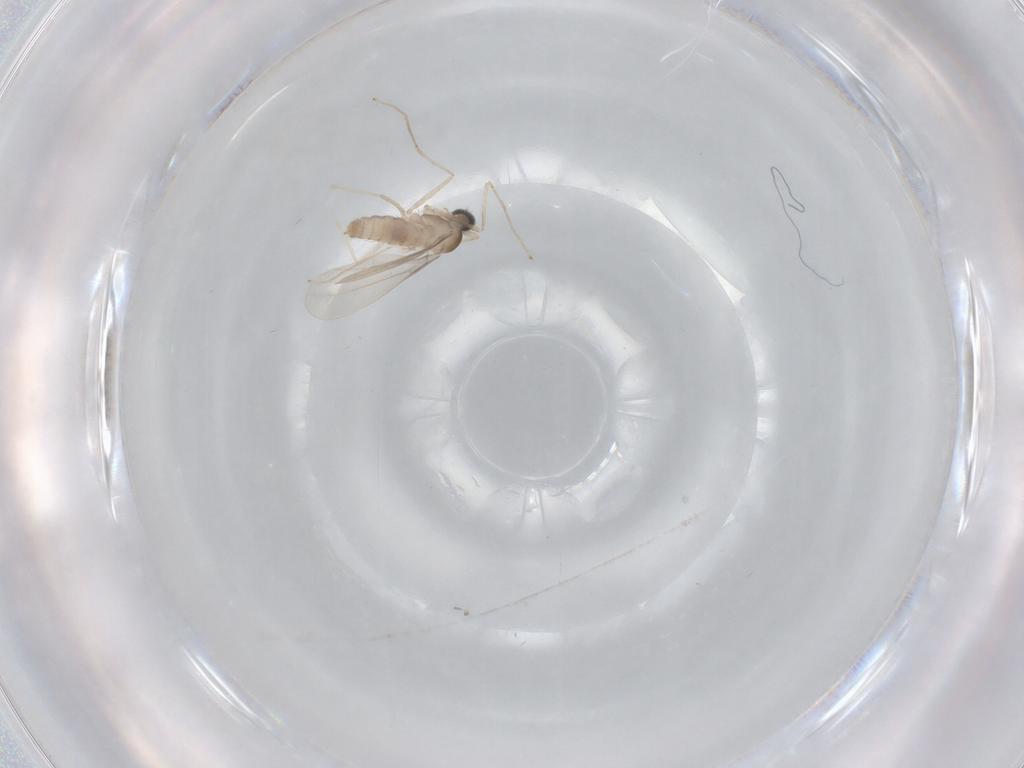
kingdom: Animalia
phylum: Arthropoda
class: Insecta
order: Diptera
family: Cecidomyiidae
